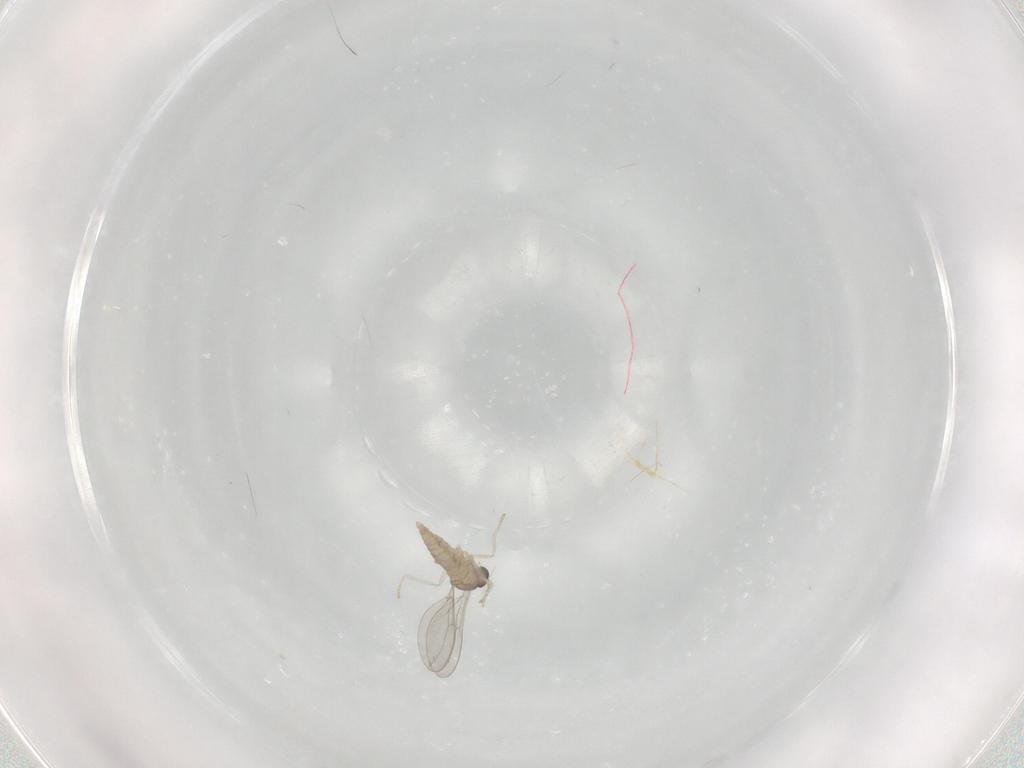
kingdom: Animalia
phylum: Arthropoda
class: Insecta
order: Diptera
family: Cecidomyiidae
